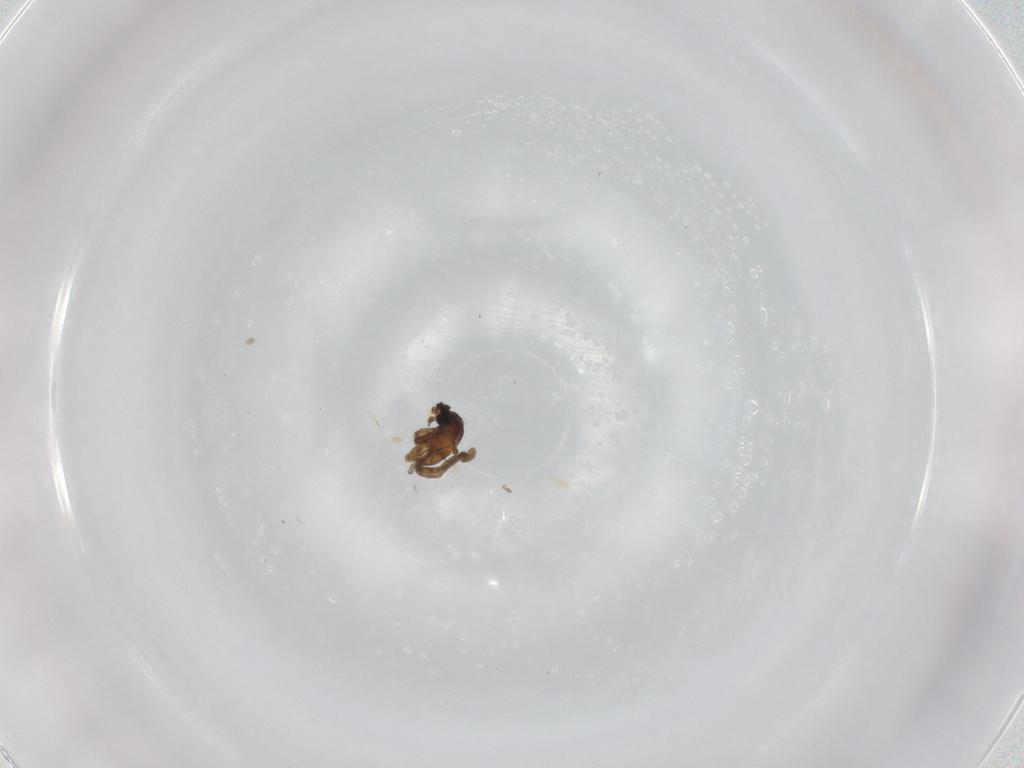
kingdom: Animalia
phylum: Arthropoda
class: Insecta
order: Diptera
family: Cecidomyiidae
